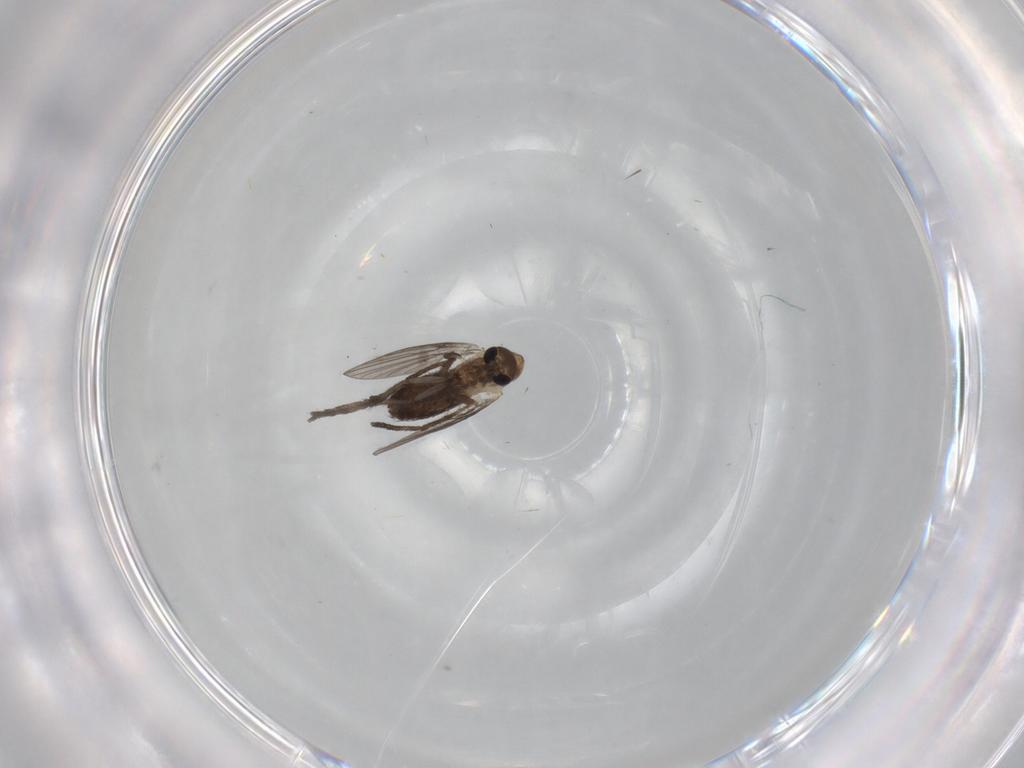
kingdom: Animalia
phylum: Arthropoda
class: Insecta
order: Diptera
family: Psychodidae
